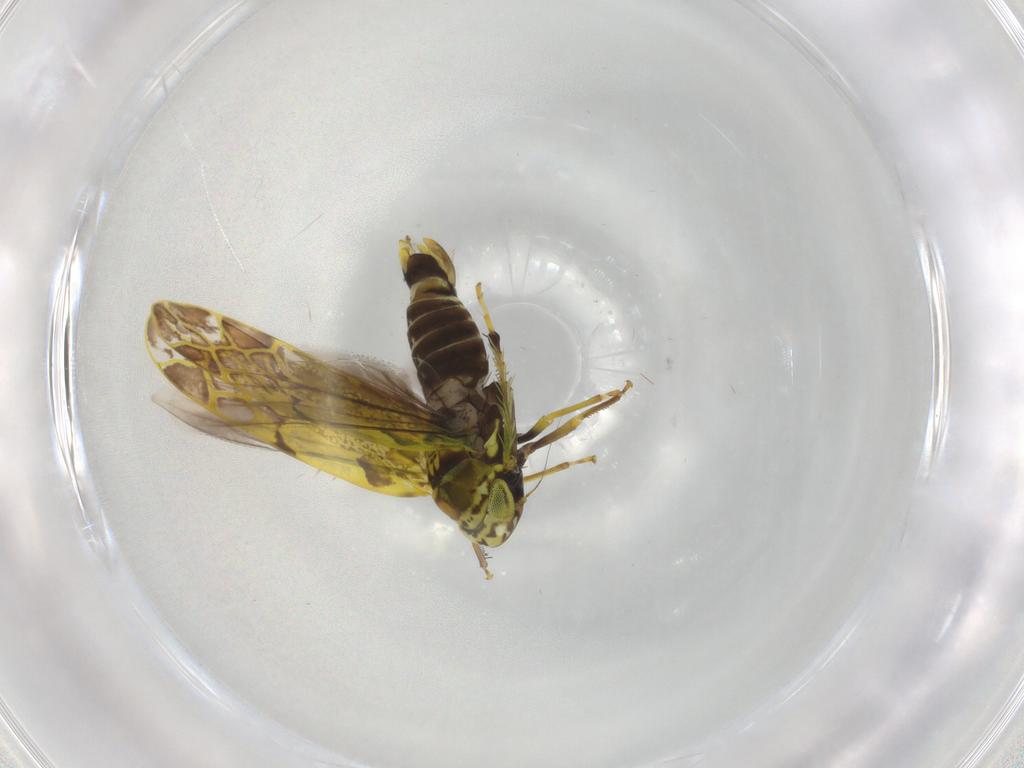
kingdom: Animalia
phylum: Arthropoda
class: Insecta
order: Hemiptera
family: Cicadellidae
